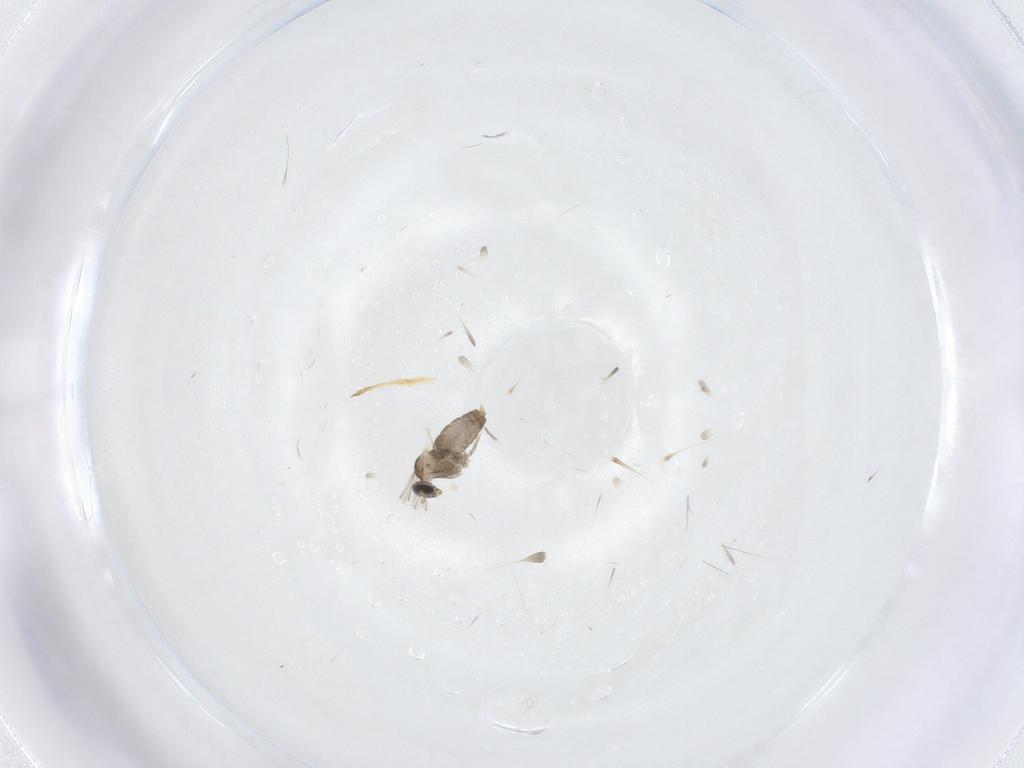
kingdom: Animalia
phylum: Arthropoda
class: Insecta
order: Diptera
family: Cecidomyiidae
